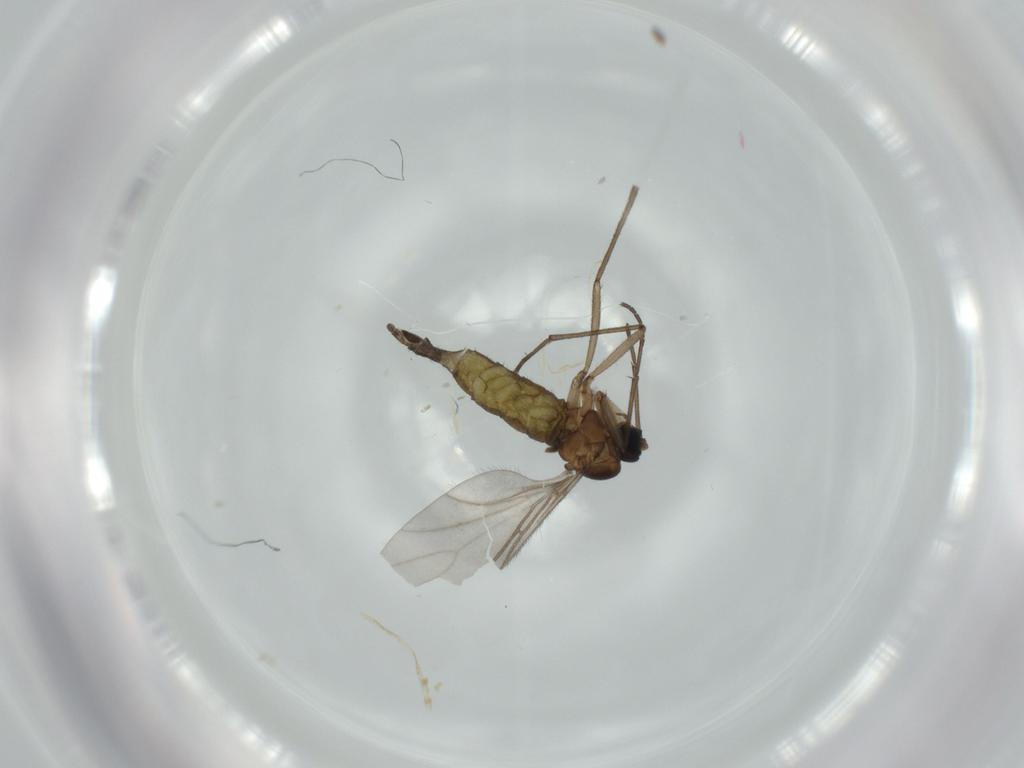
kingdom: Animalia
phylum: Arthropoda
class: Insecta
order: Diptera
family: Sciaridae
